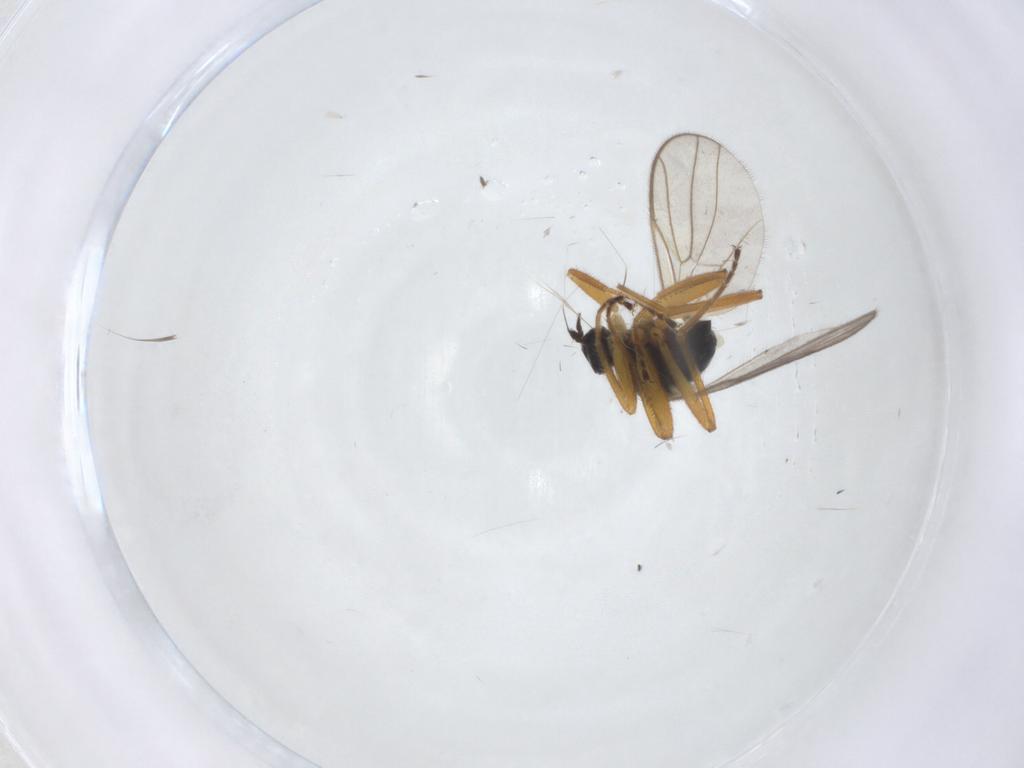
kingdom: Animalia
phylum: Arthropoda
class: Insecta
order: Diptera
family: Hybotidae
